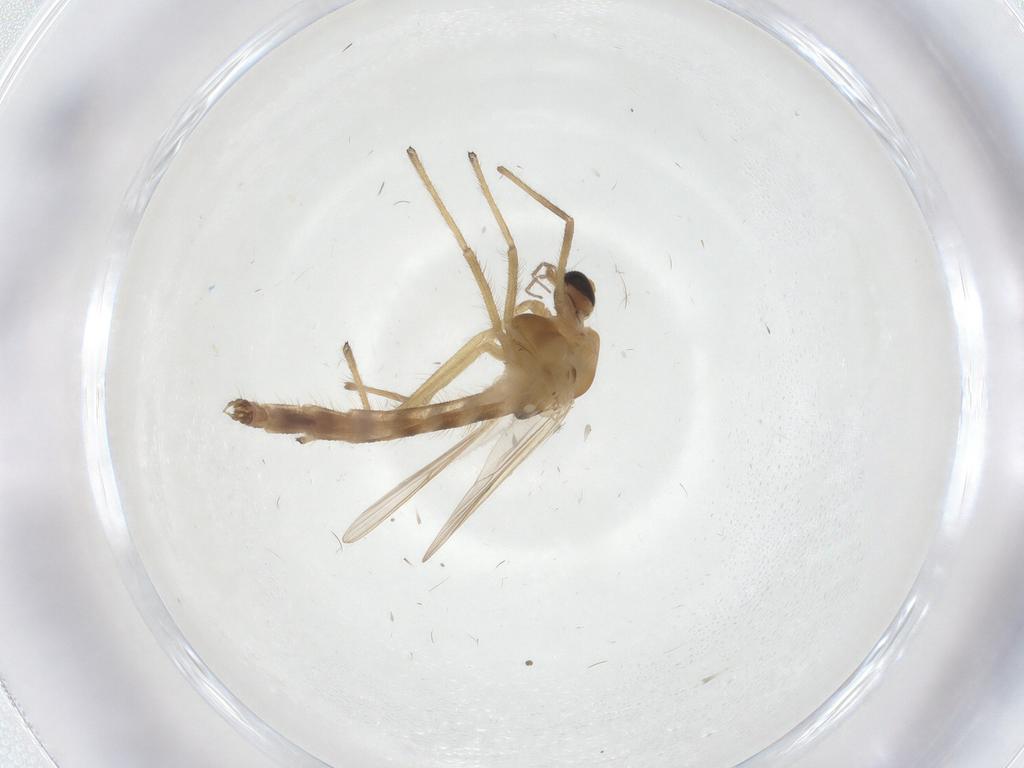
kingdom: Animalia
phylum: Arthropoda
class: Insecta
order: Diptera
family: Chironomidae
